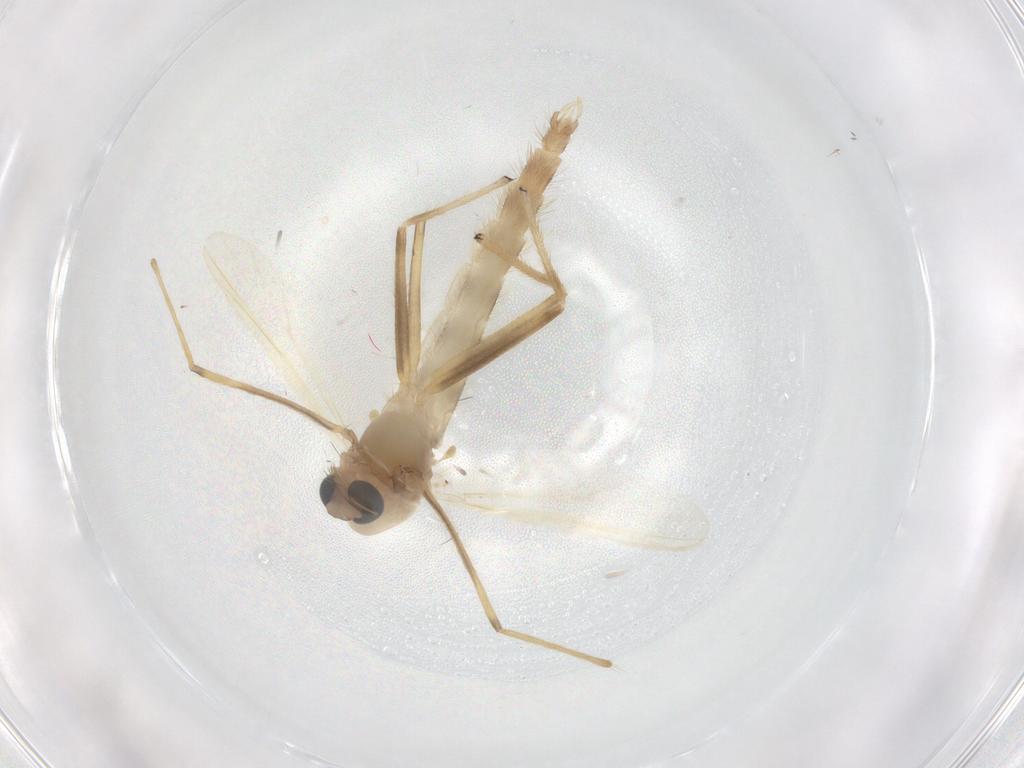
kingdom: Animalia
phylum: Arthropoda
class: Insecta
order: Diptera
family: Chironomidae
